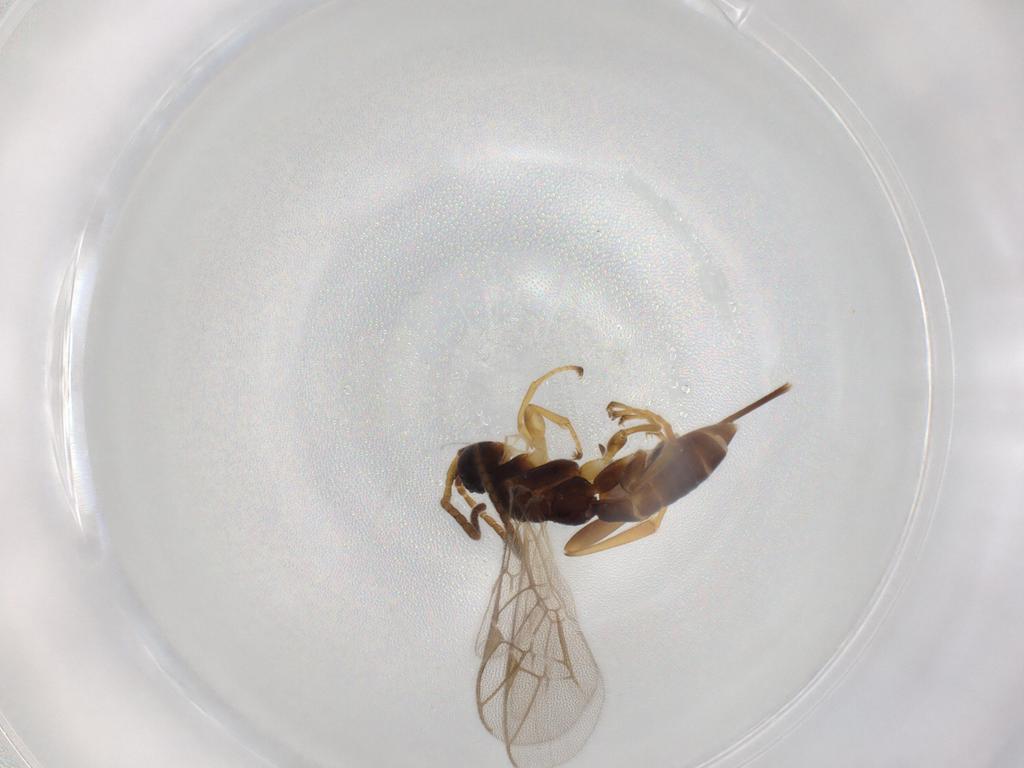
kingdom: Animalia
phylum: Arthropoda
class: Insecta
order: Hymenoptera
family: Ichneumonidae
